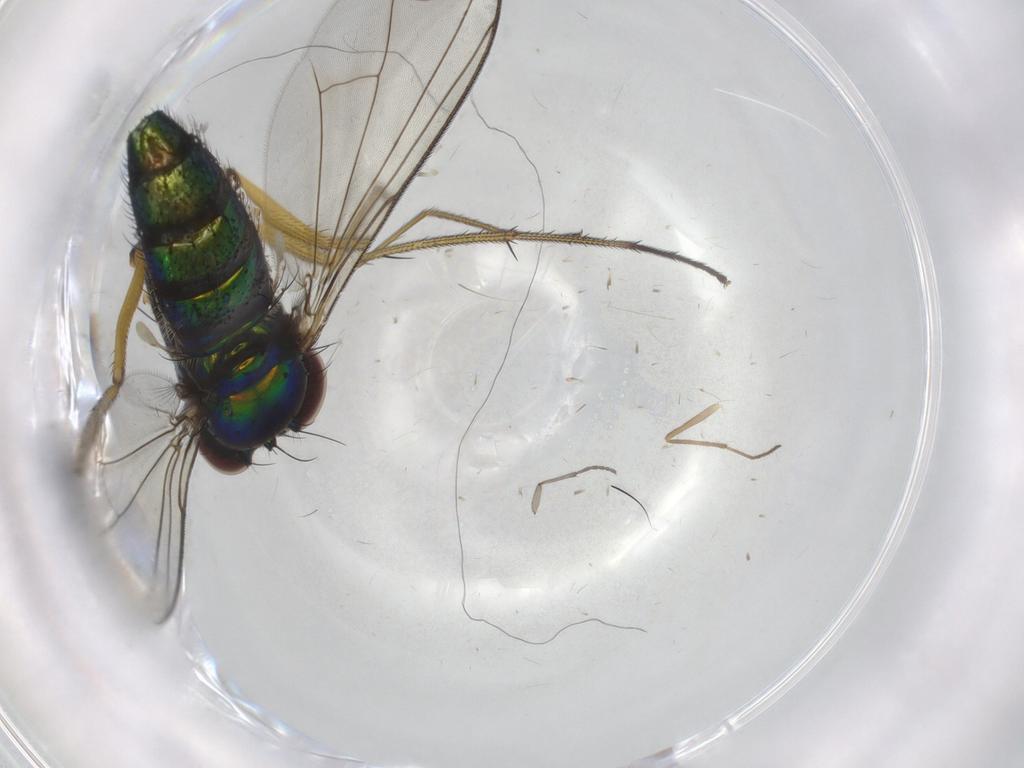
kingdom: Animalia
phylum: Arthropoda
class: Insecta
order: Diptera
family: Dolichopodidae
